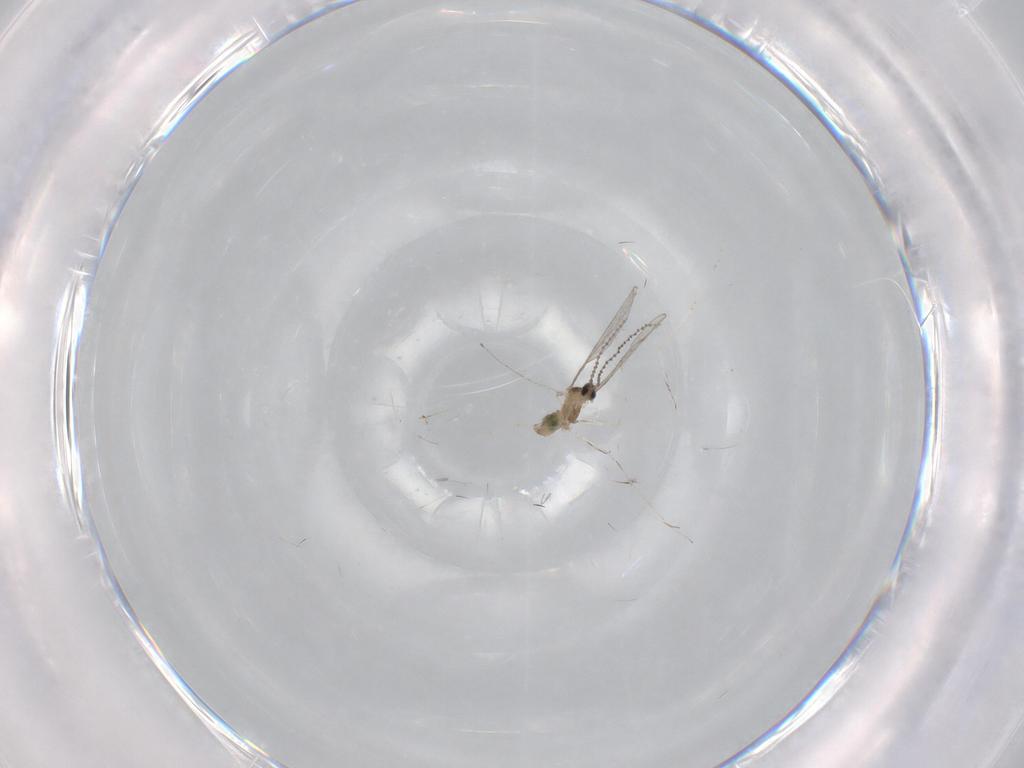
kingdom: Animalia
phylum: Arthropoda
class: Insecta
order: Diptera
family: Cecidomyiidae
